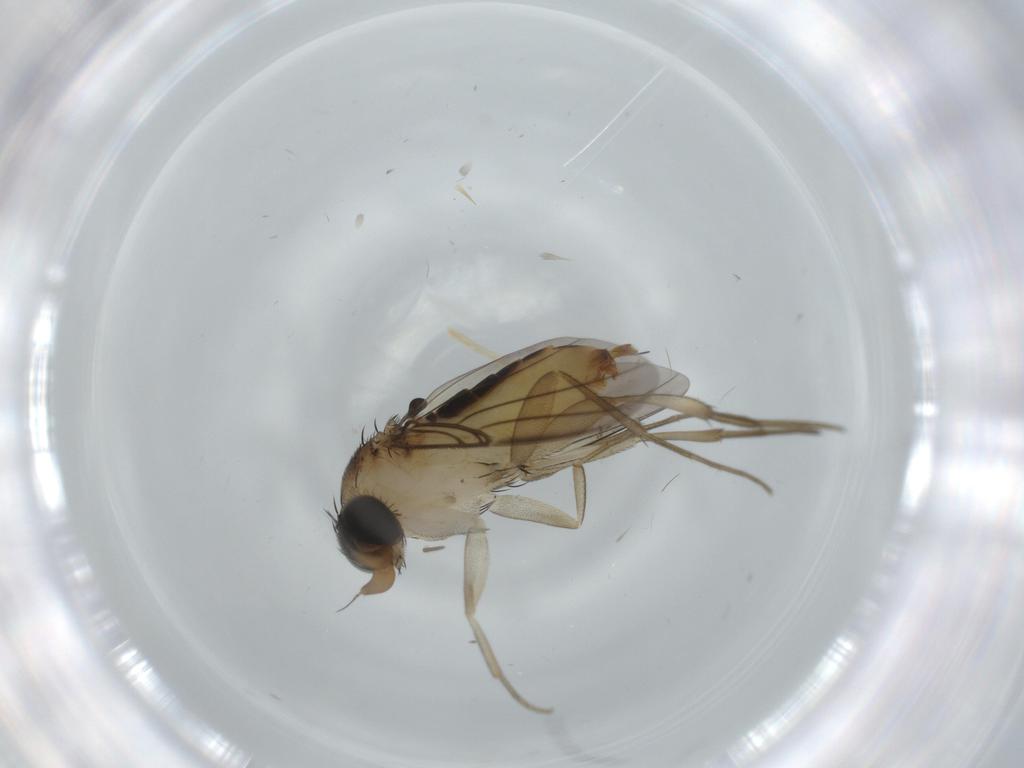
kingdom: Animalia
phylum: Arthropoda
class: Insecta
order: Diptera
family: Phoridae
